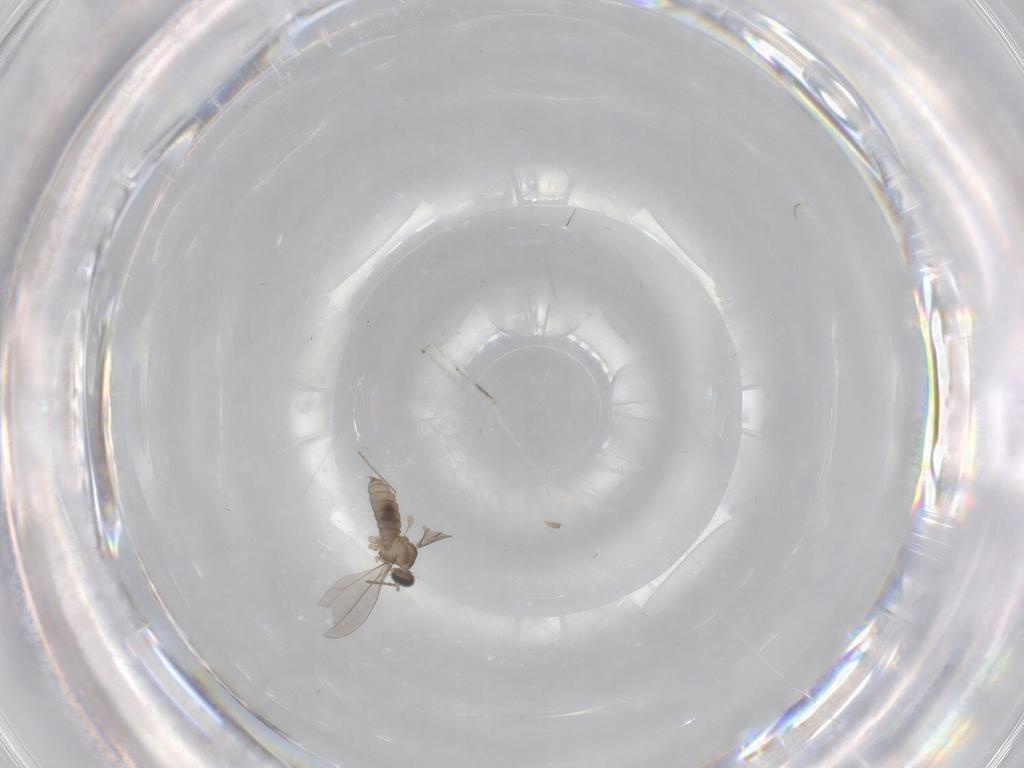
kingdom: Animalia
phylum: Arthropoda
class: Insecta
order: Diptera
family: Cecidomyiidae
